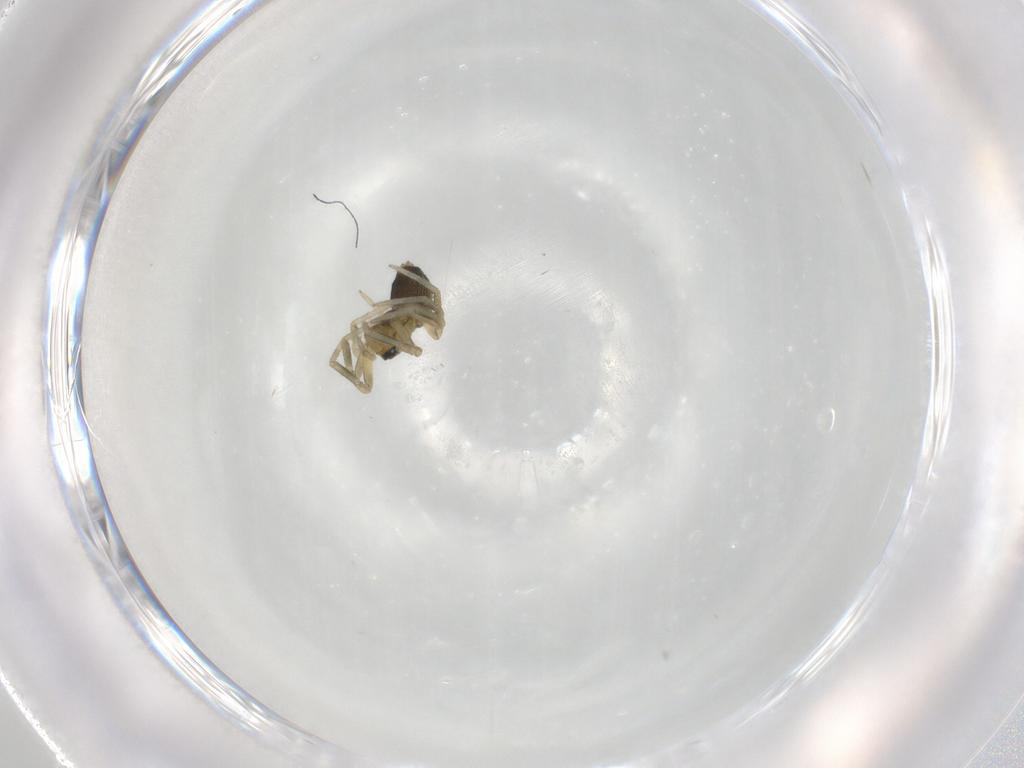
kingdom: Animalia
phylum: Arthropoda
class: Arachnida
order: Araneae
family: Linyphiidae
